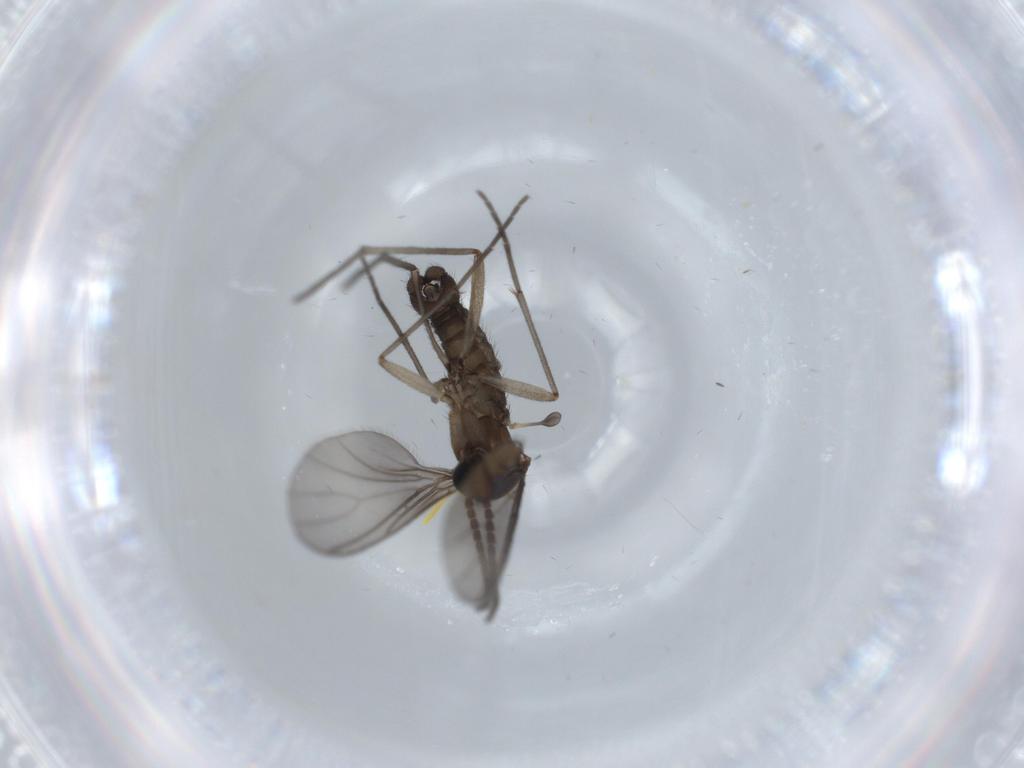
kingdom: Animalia
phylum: Arthropoda
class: Insecta
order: Diptera
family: Sciaridae
